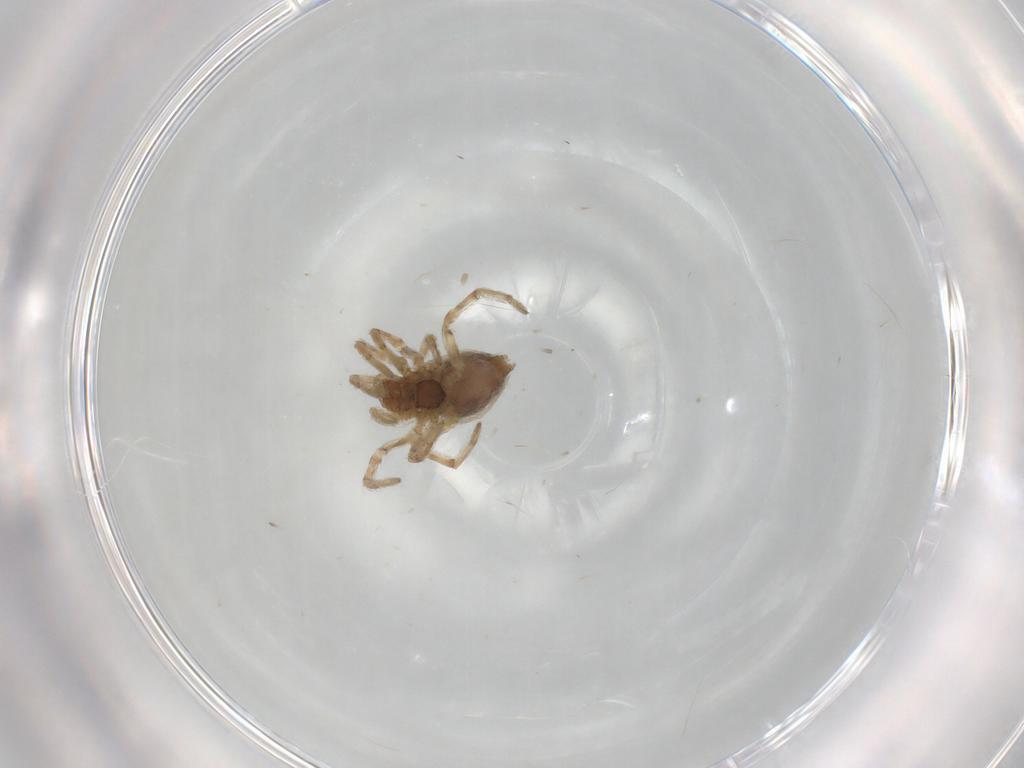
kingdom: Animalia
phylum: Arthropoda
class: Arachnida
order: Araneae
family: Dictynidae
